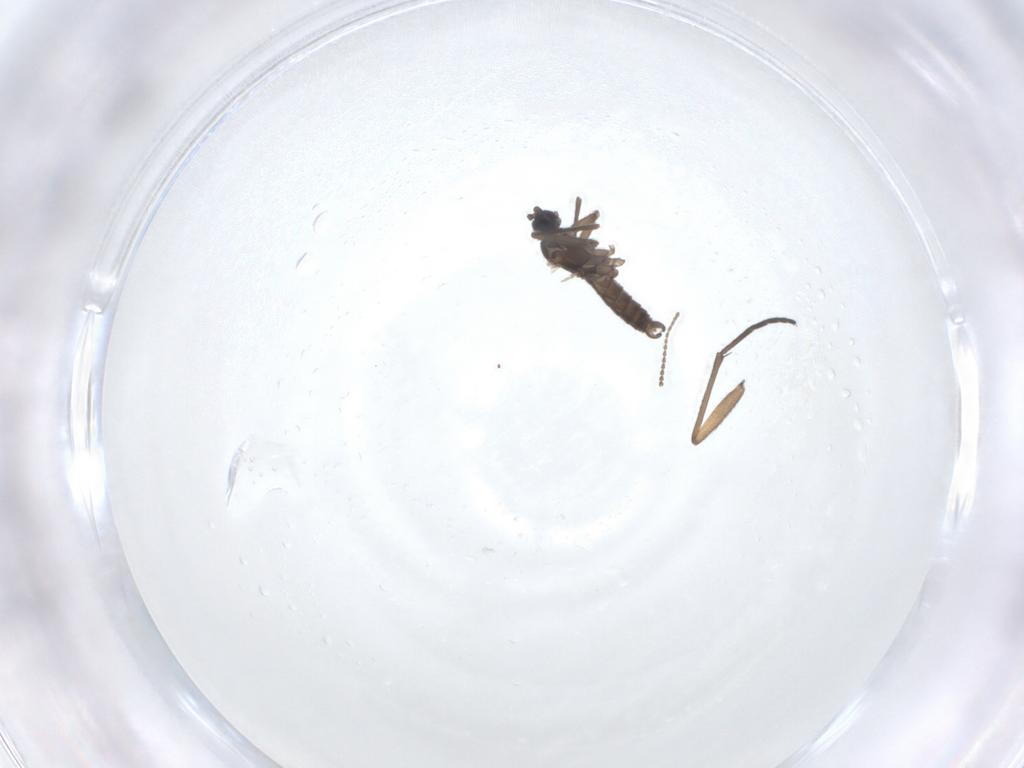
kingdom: Animalia
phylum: Arthropoda
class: Insecta
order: Diptera
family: Sciaridae
